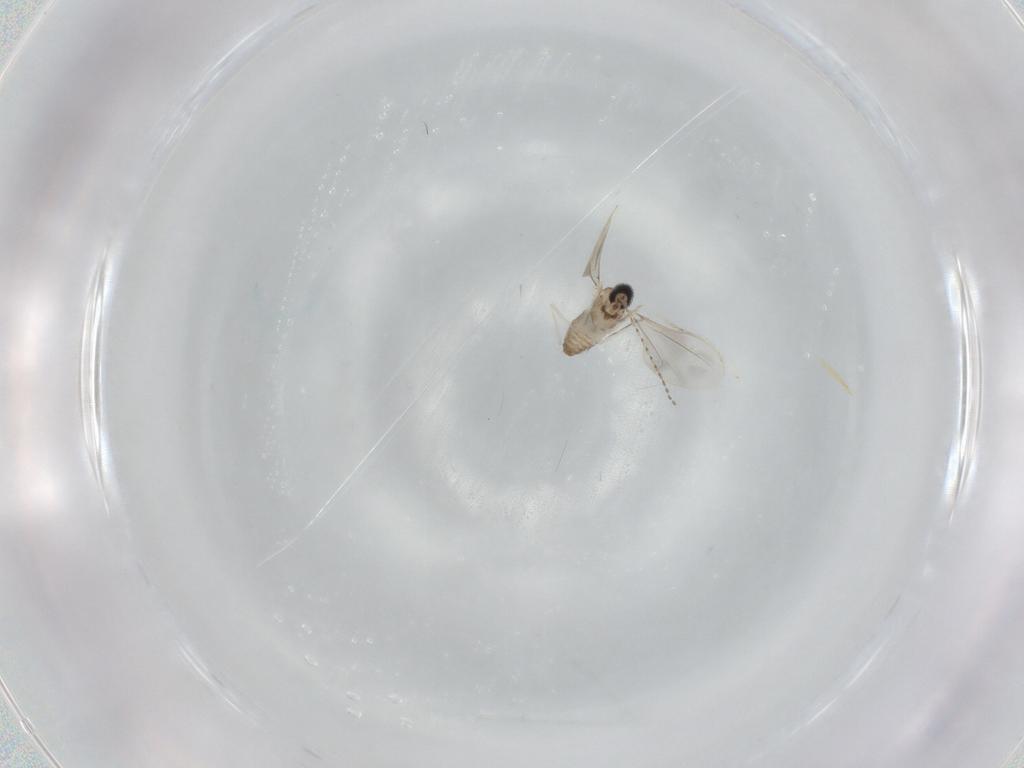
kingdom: Animalia
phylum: Arthropoda
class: Insecta
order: Diptera
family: Cecidomyiidae
